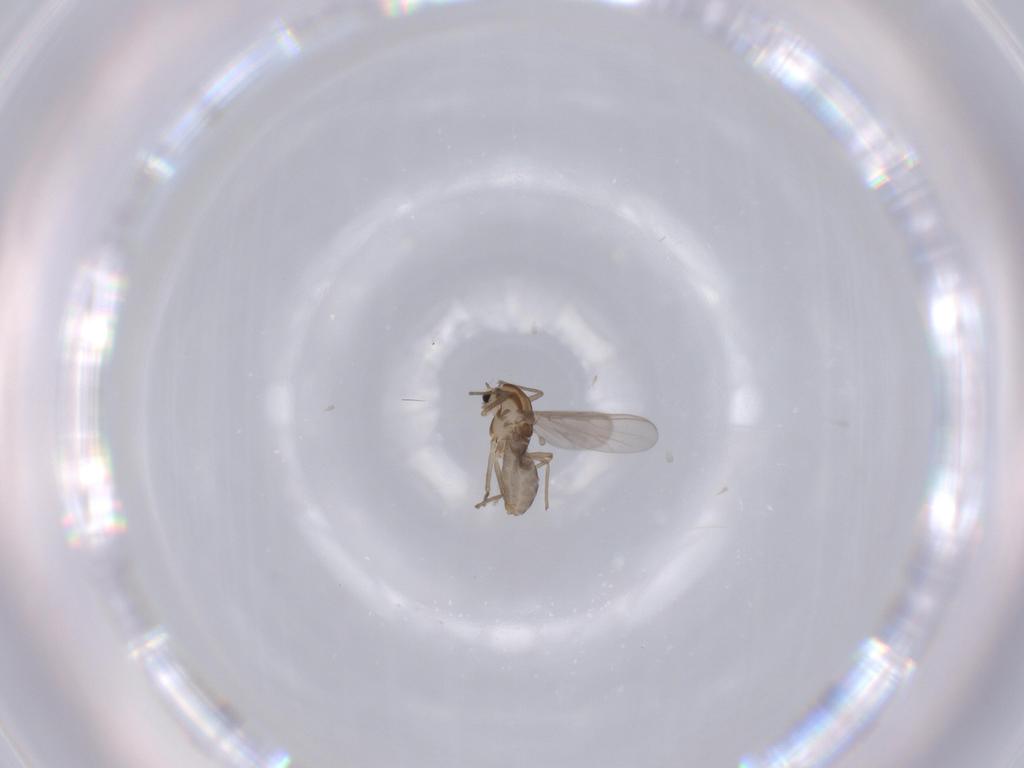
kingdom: Animalia
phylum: Arthropoda
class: Insecta
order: Diptera
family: Chironomidae
